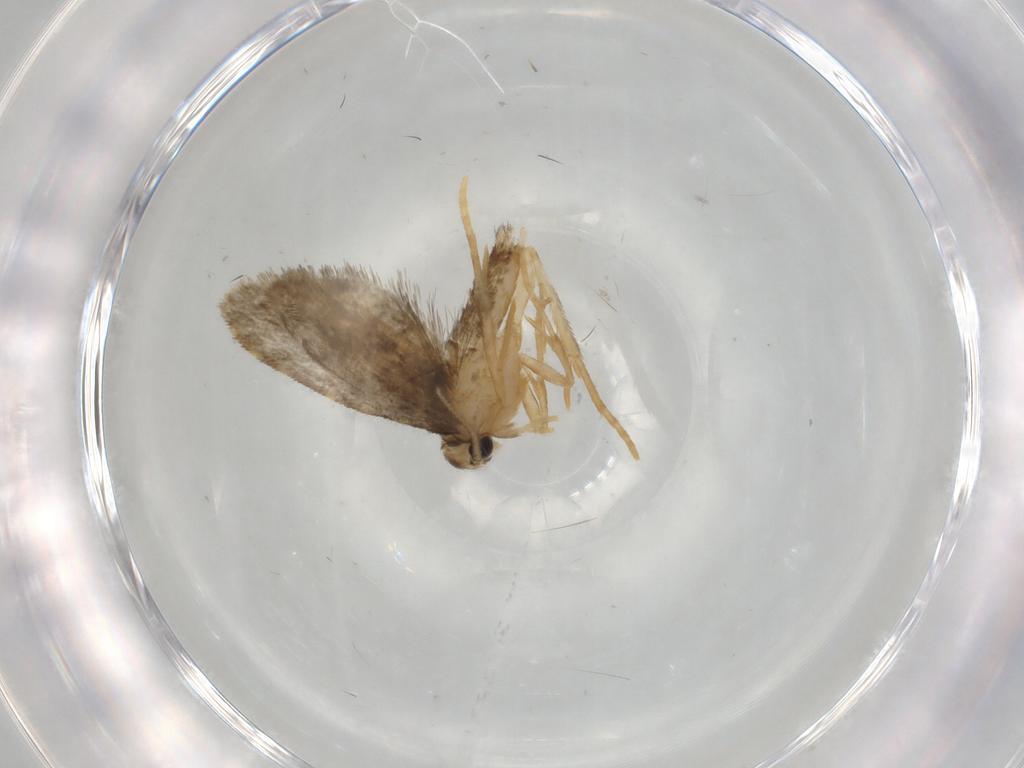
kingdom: Animalia
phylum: Arthropoda
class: Insecta
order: Lepidoptera
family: Psychidae
